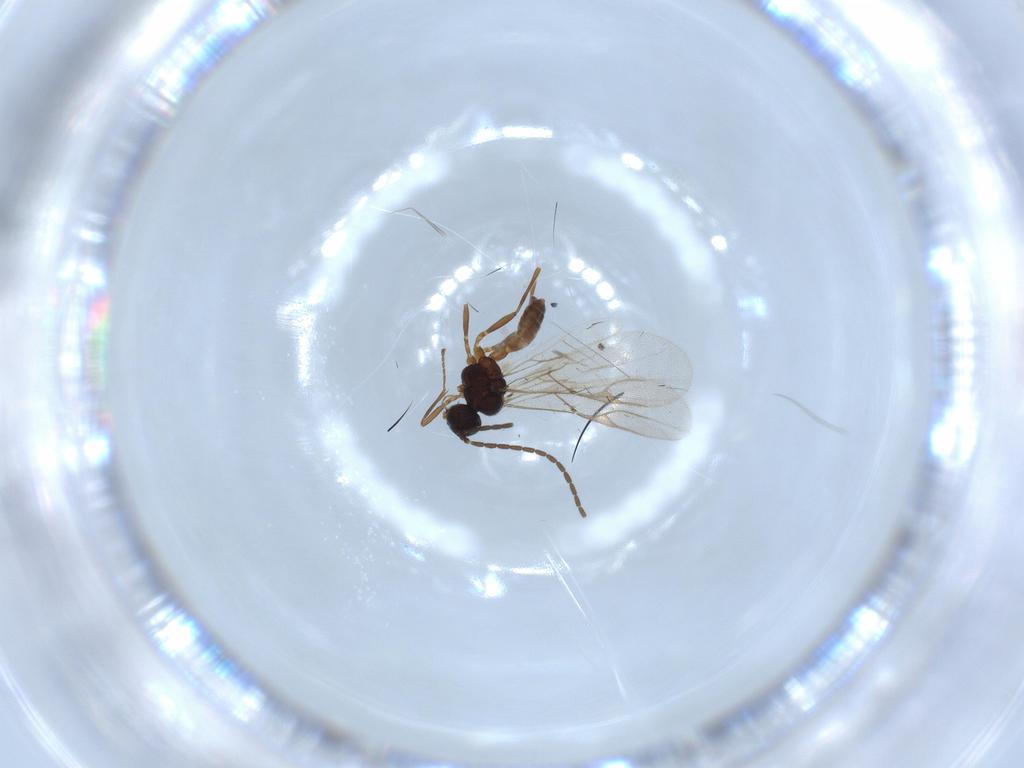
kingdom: Animalia
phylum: Arthropoda
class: Insecta
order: Hymenoptera
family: Braconidae
